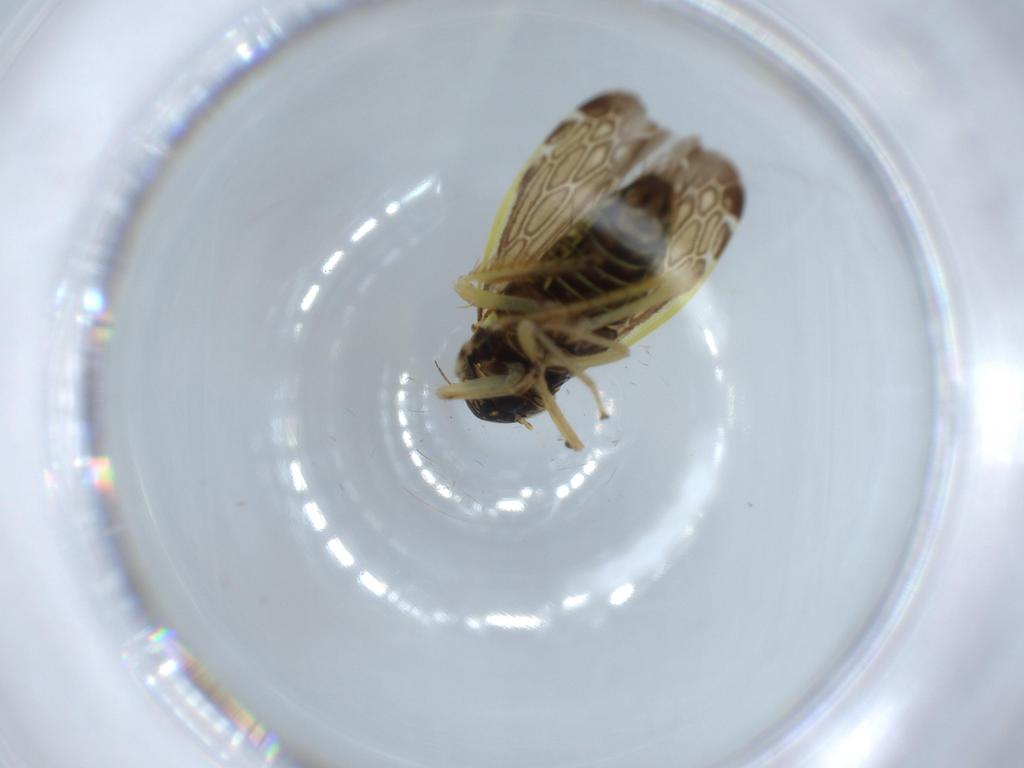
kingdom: Animalia
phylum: Arthropoda
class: Insecta
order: Hemiptera
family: Cicadellidae
